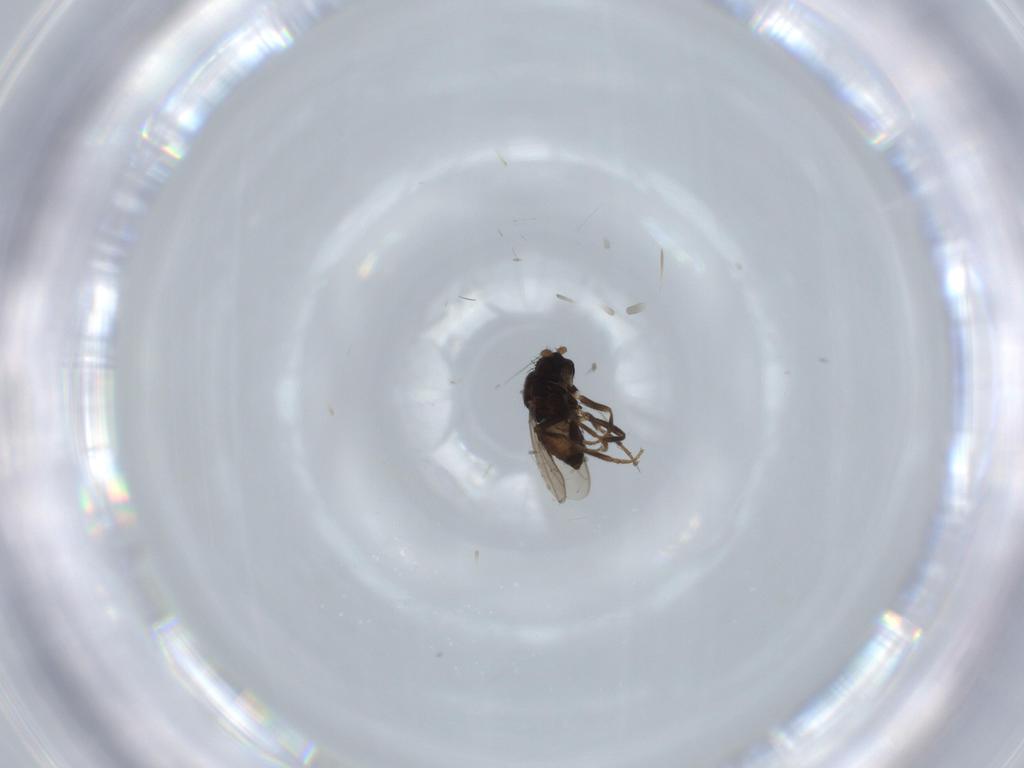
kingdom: Animalia
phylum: Arthropoda
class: Insecta
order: Diptera
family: Sphaeroceridae
